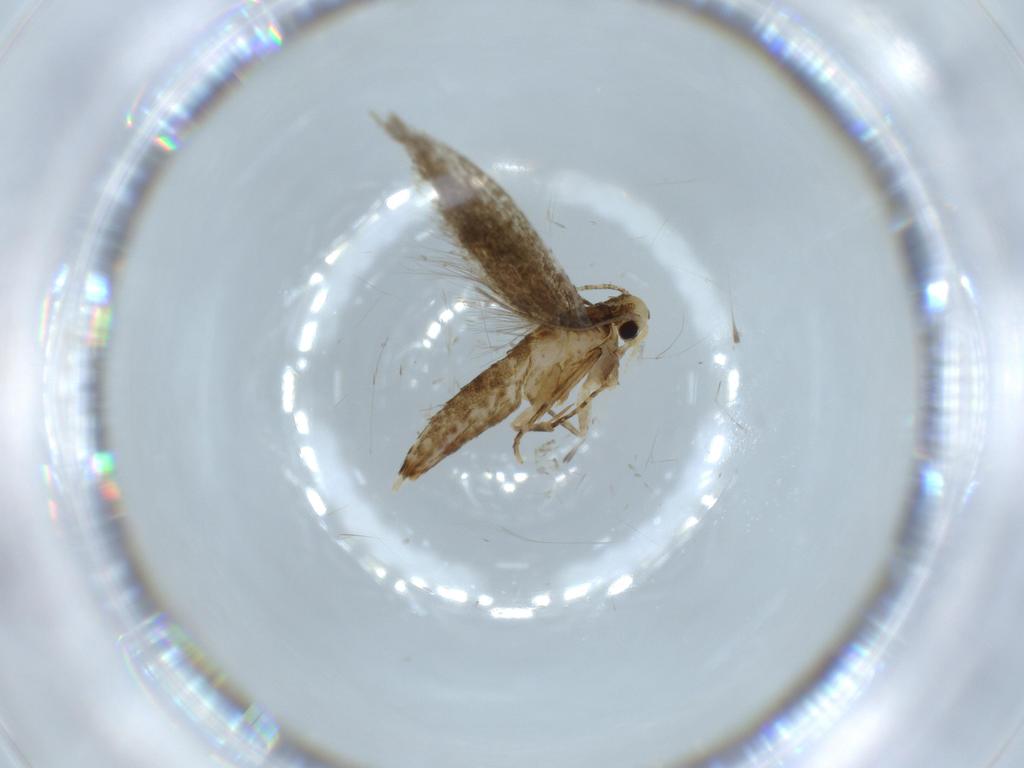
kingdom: Animalia
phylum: Arthropoda
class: Insecta
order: Lepidoptera
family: Tineidae
